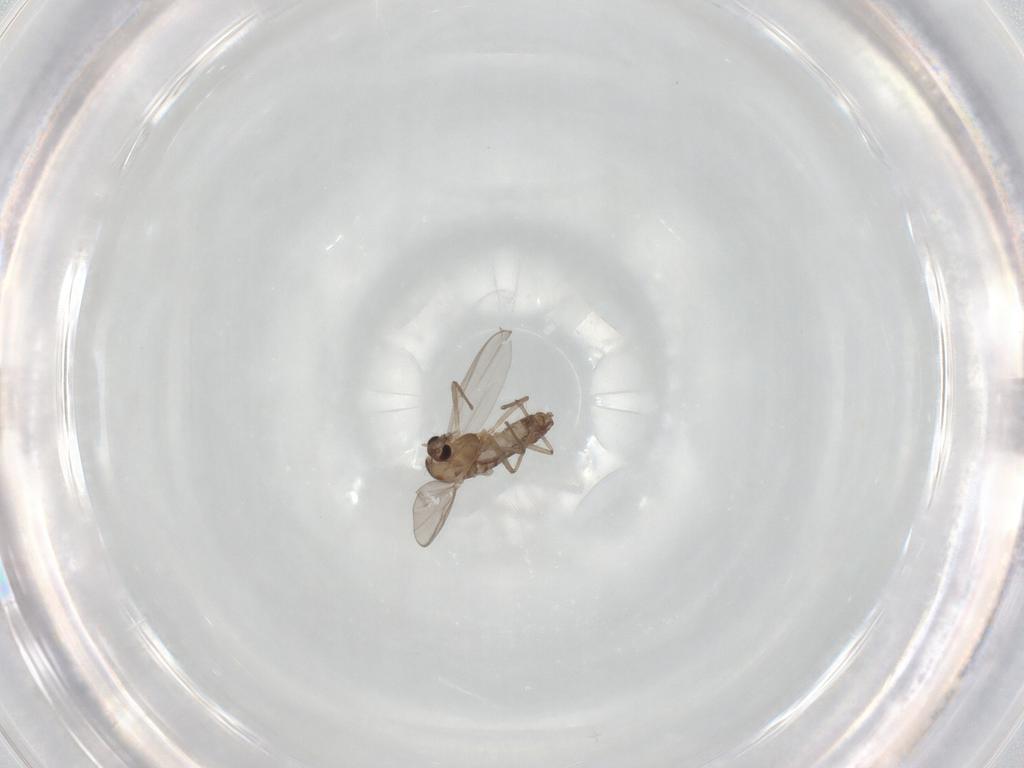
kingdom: Animalia
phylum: Arthropoda
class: Insecta
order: Diptera
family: Chironomidae
